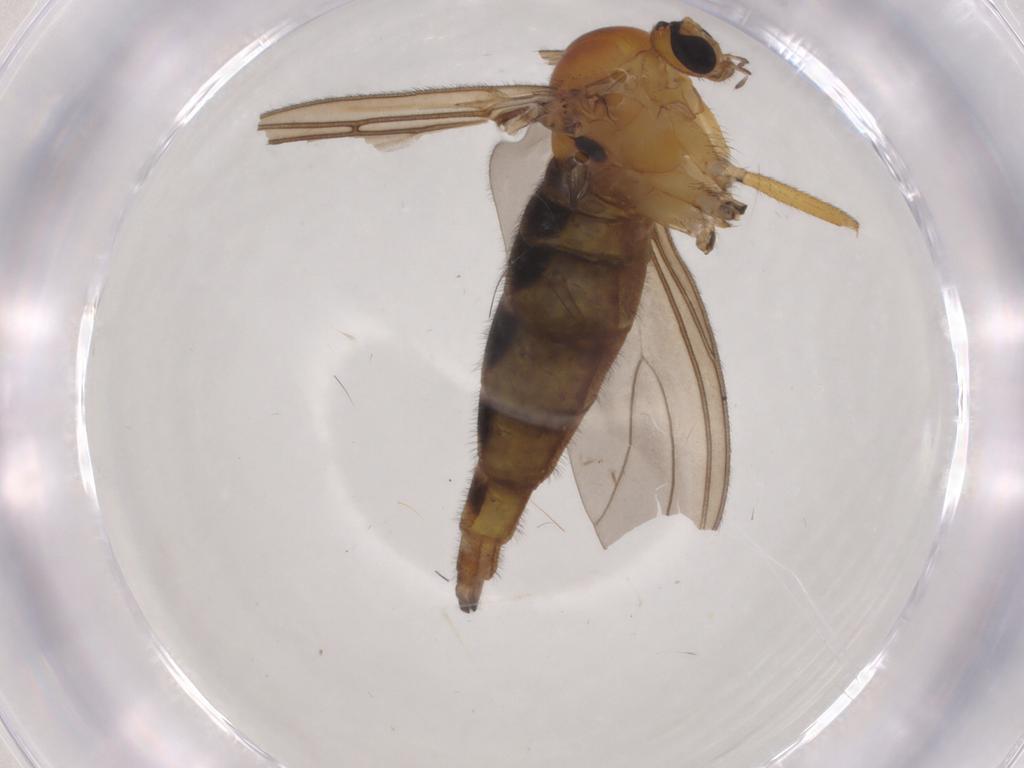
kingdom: Animalia
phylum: Arthropoda
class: Insecta
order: Diptera
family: Sciaridae
